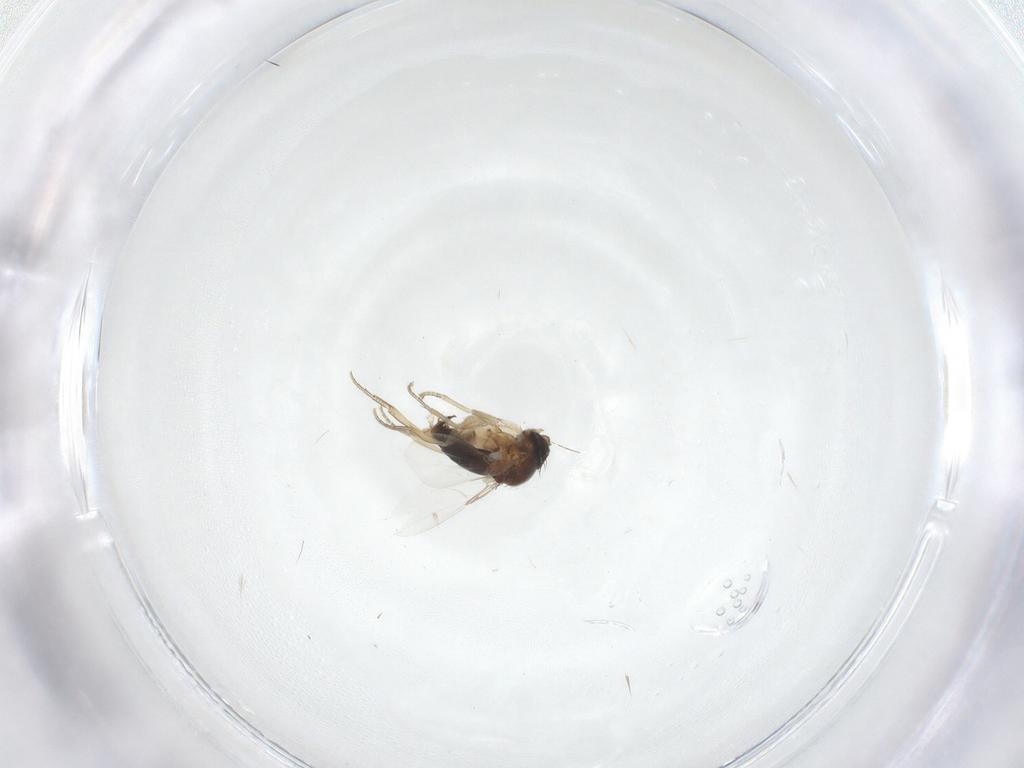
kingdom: Animalia
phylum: Arthropoda
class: Insecta
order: Diptera
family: Phoridae
